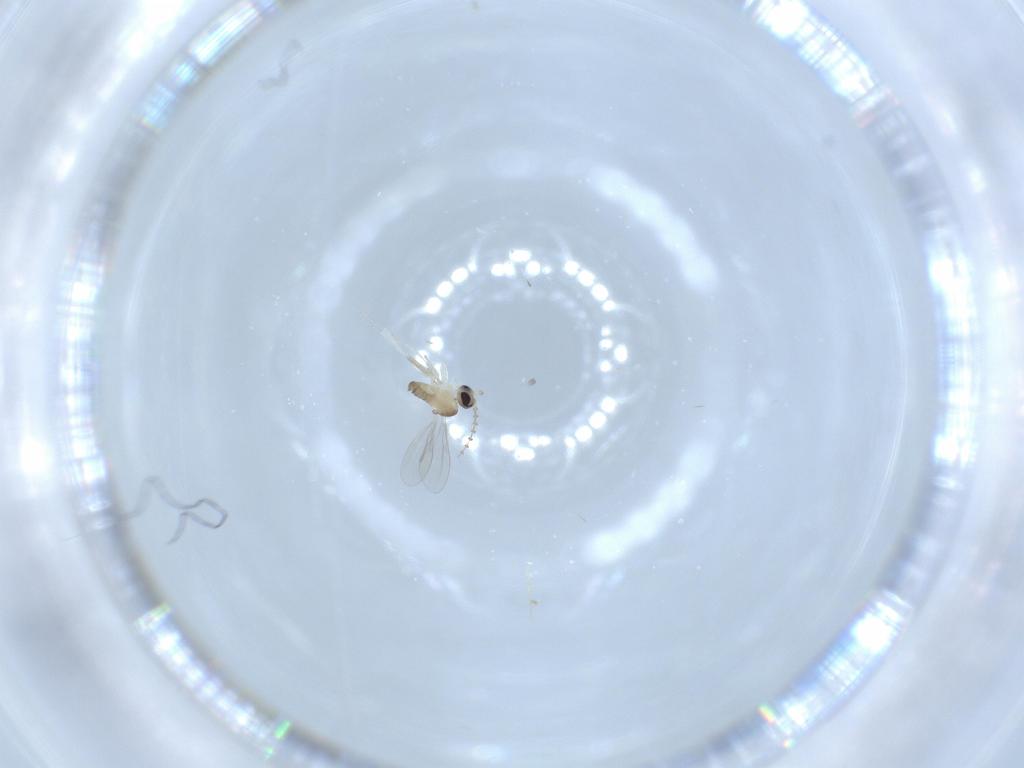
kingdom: Animalia
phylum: Arthropoda
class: Insecta
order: Diptera
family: Cecidomyiidae
